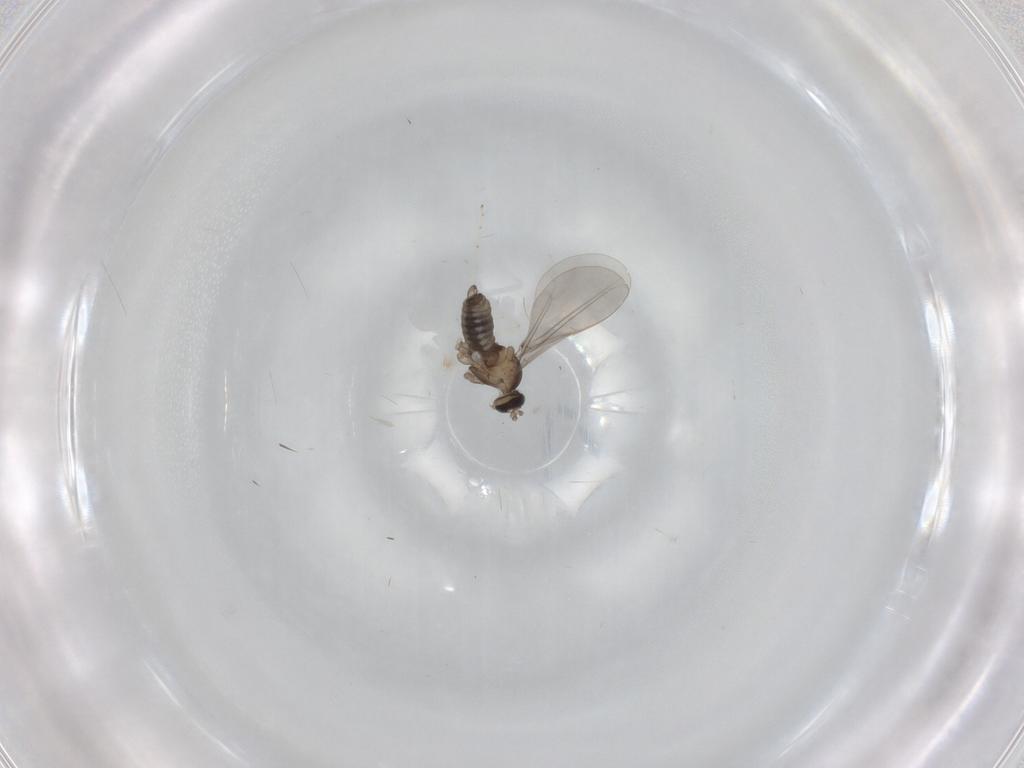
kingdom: Animalia
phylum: Arthropoda
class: Insecta
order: Diptera
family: Cecidomyiidae
